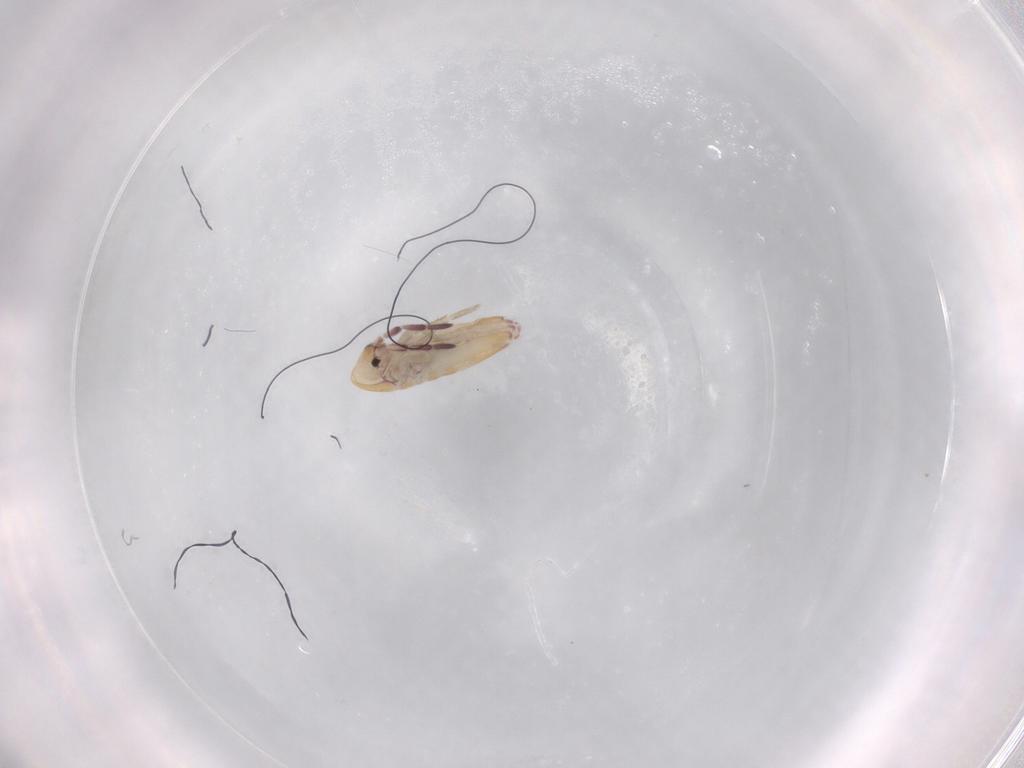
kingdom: Animalia
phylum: Arthropoda
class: Collembola
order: Entomobryomorpha
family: Entomobryidae
